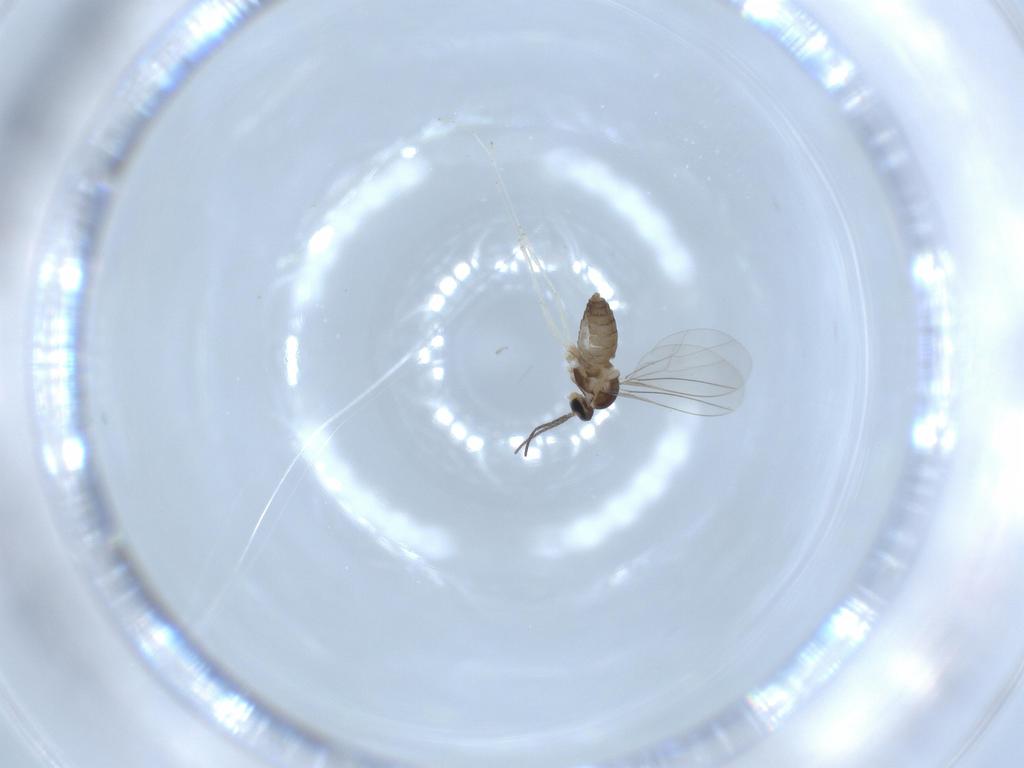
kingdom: Animalia
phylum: Arthropoda
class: Insecta
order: Diptera
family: Cecidomyiidae
